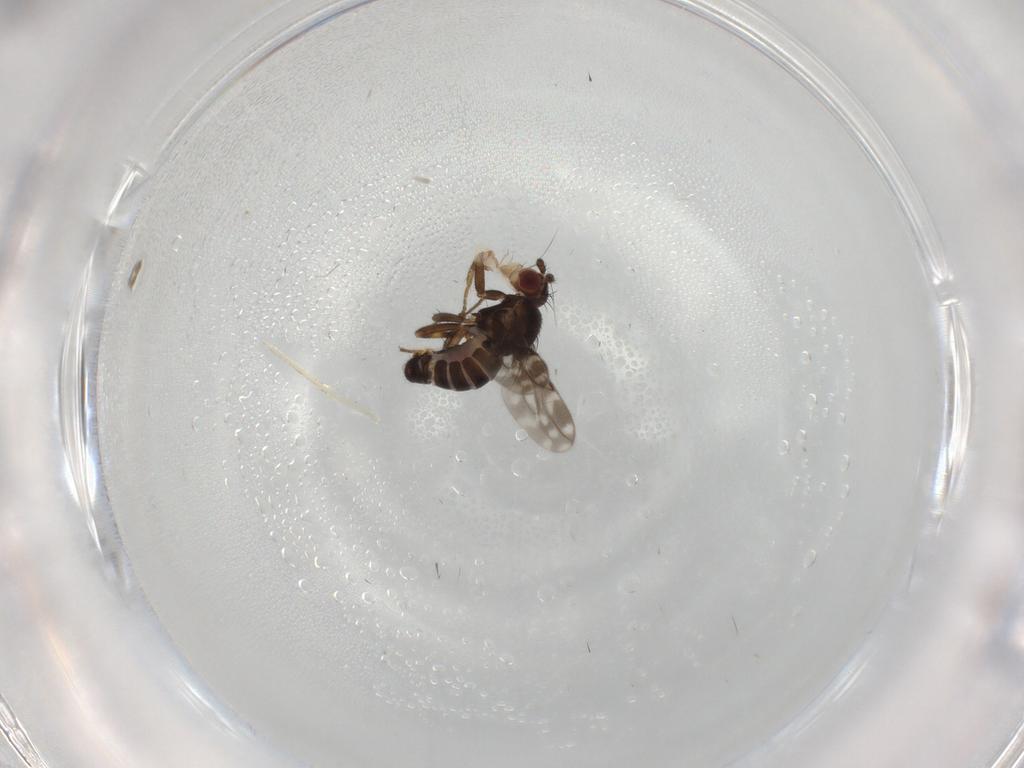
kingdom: Animalia
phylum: Arthropoda
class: Insecta
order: Diptera
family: Sphaeroceridae
